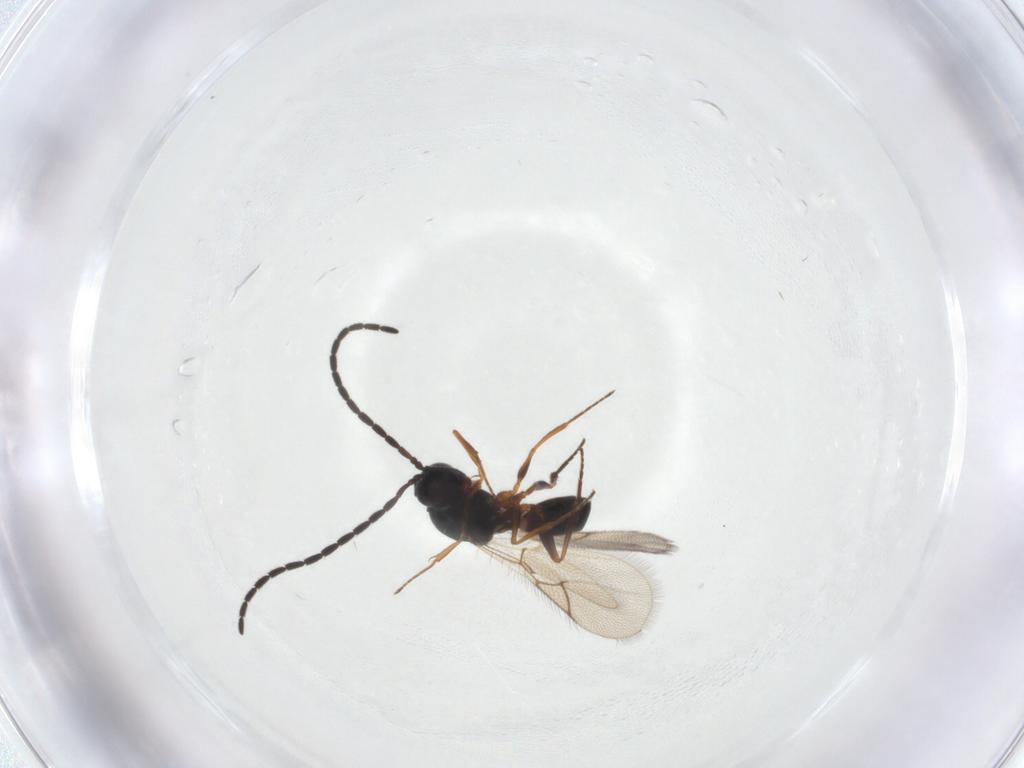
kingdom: Animalia
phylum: Arthropoda
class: Insecta
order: Hymenoptera
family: Figitidae
